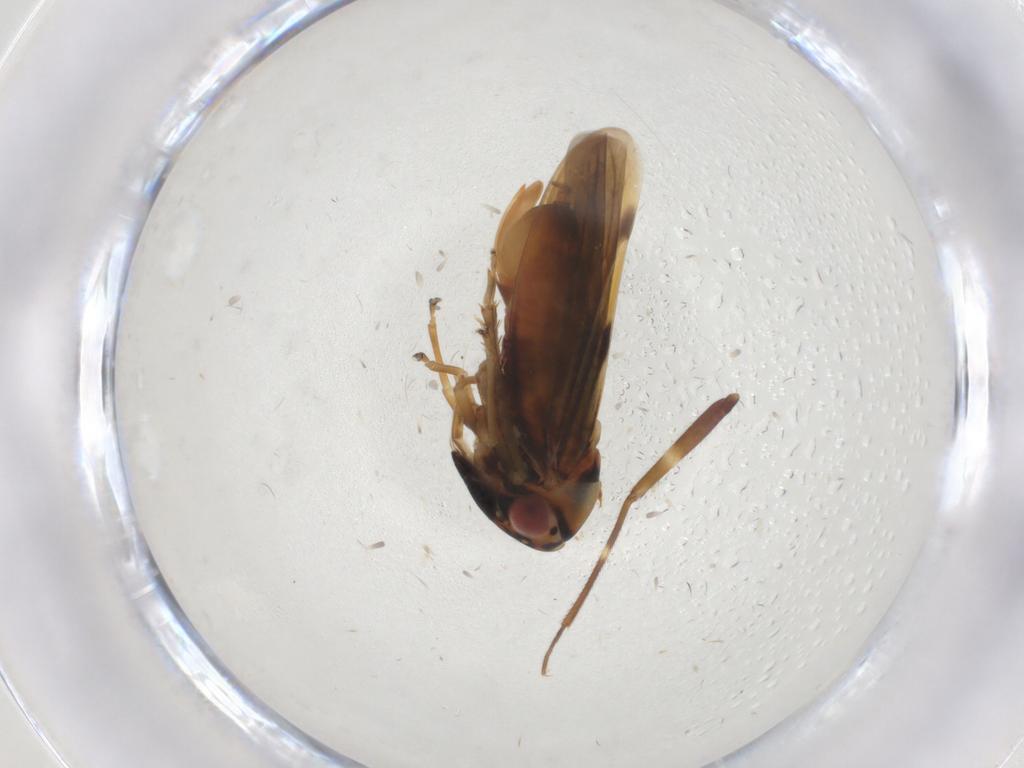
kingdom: Animalia
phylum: Arthropoda
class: Insecta
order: Hemiptera
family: Cicadellidae
